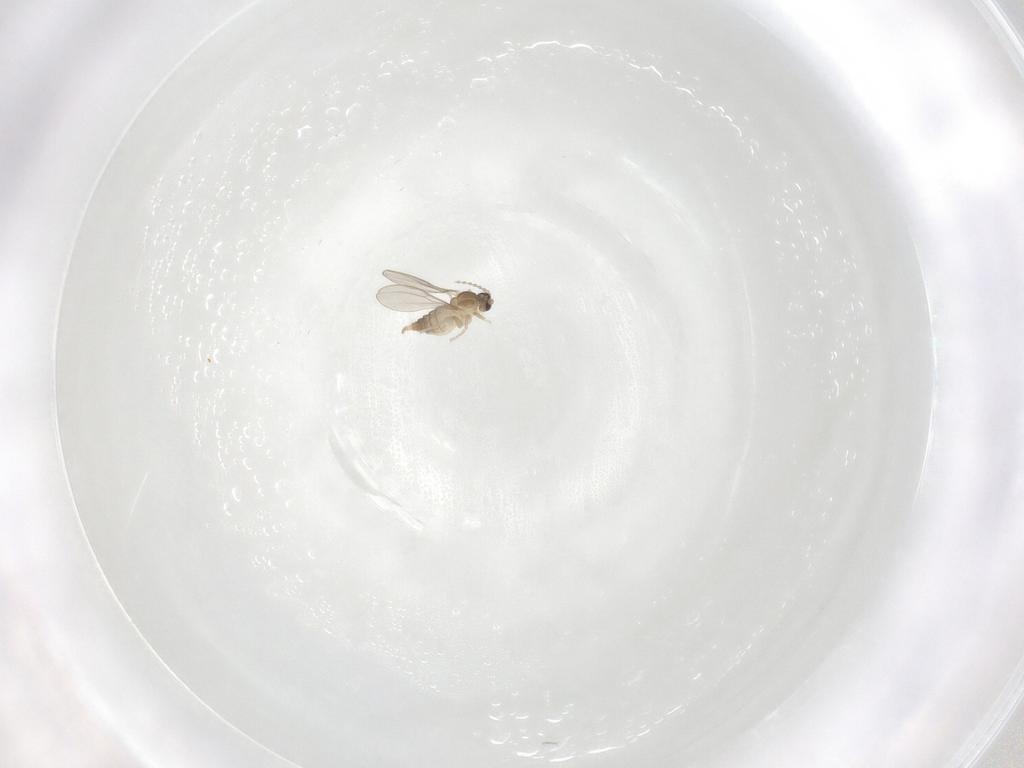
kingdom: Animalia
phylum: Arthropoda
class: Insecta
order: Diptera
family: Cecidomyiidae
